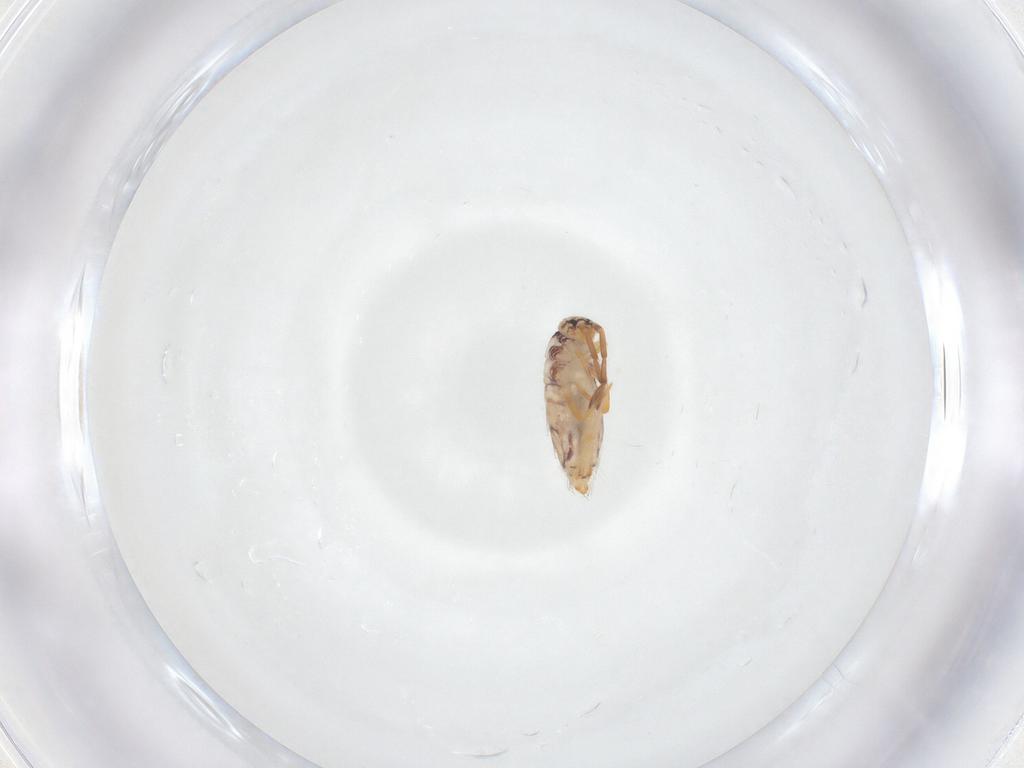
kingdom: Animalia
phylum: Arthropoda
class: Collembola
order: Entomobryomorpha
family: Entomobryidae
